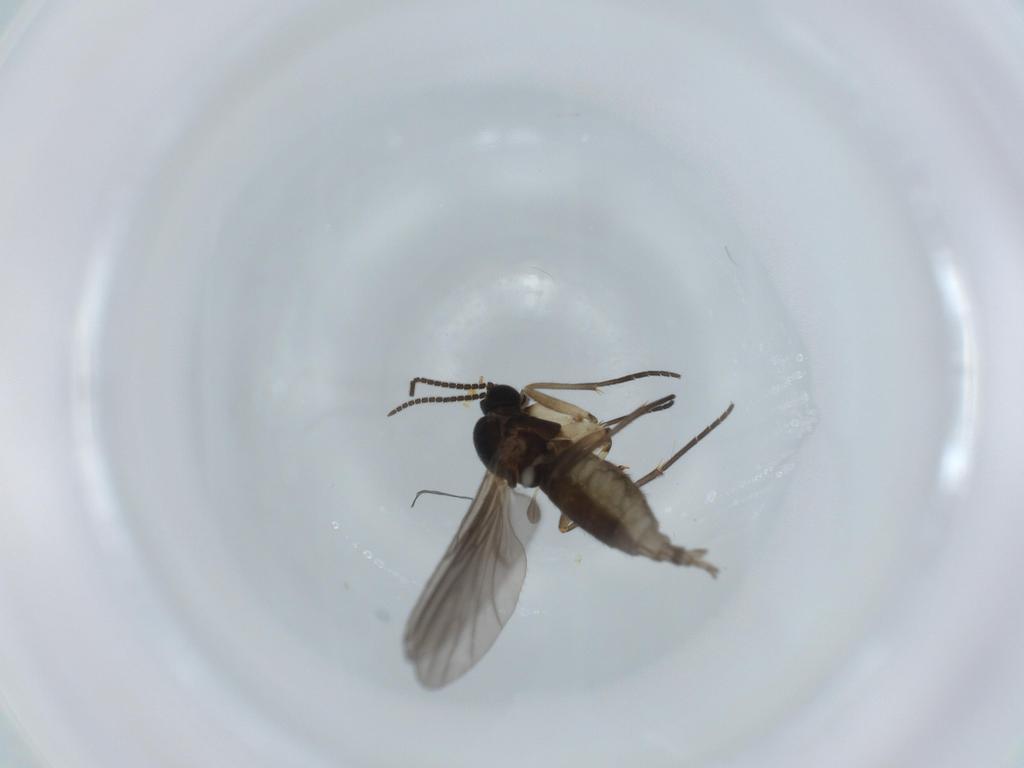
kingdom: Animalia
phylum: Arthropoda
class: Insecta
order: Diptera
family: Sciaridae
